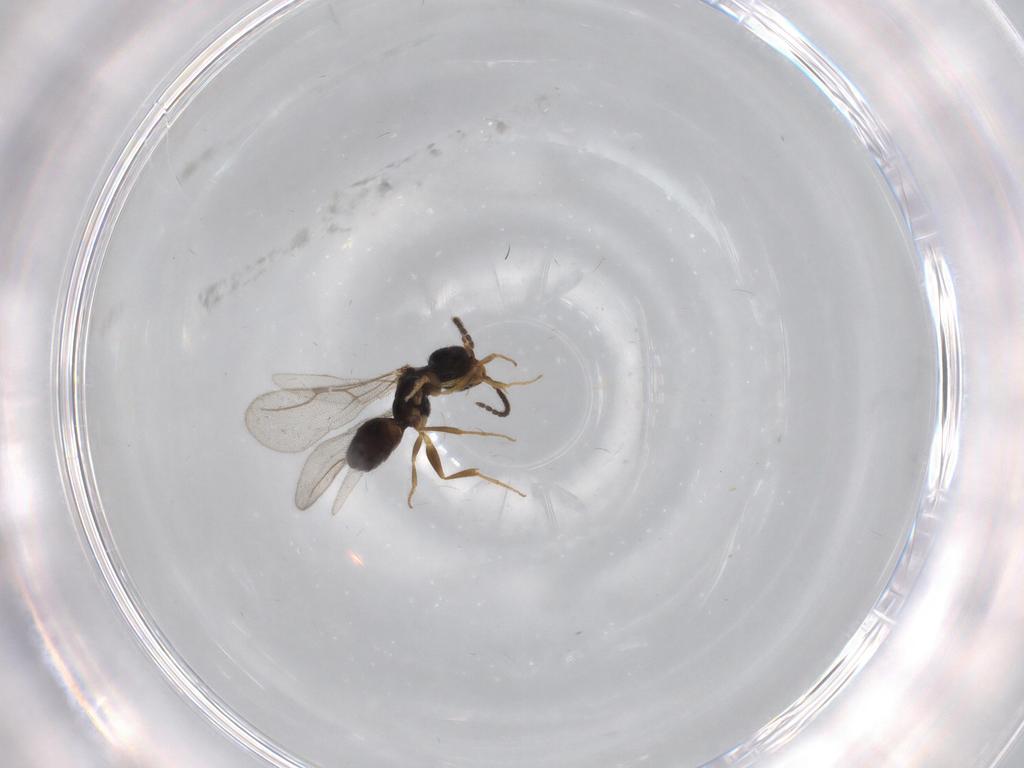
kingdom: Animalia
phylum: Arthropoda
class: Insecta
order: Hymenoptera
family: Bethylidae
